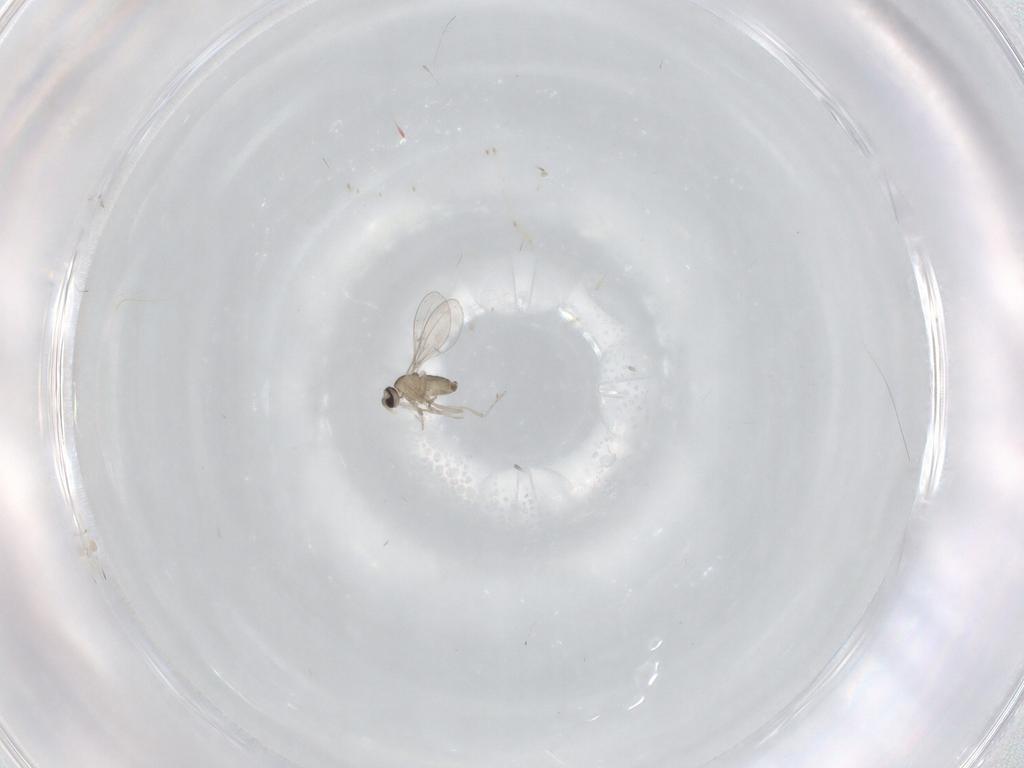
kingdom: Animalia
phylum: Arthropoda
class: Insecta
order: Diptera
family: Cecidomyiidae
